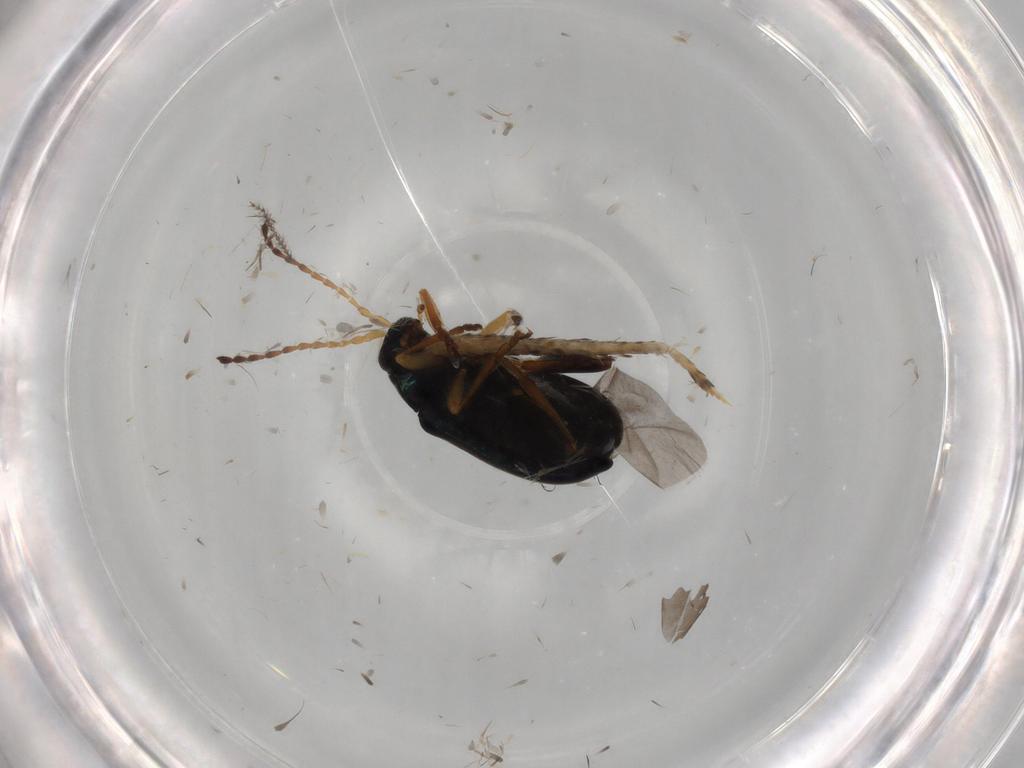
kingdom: Animalia
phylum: Arthropoda
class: Insecta
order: Coleoptera
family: Chrysomelidae
